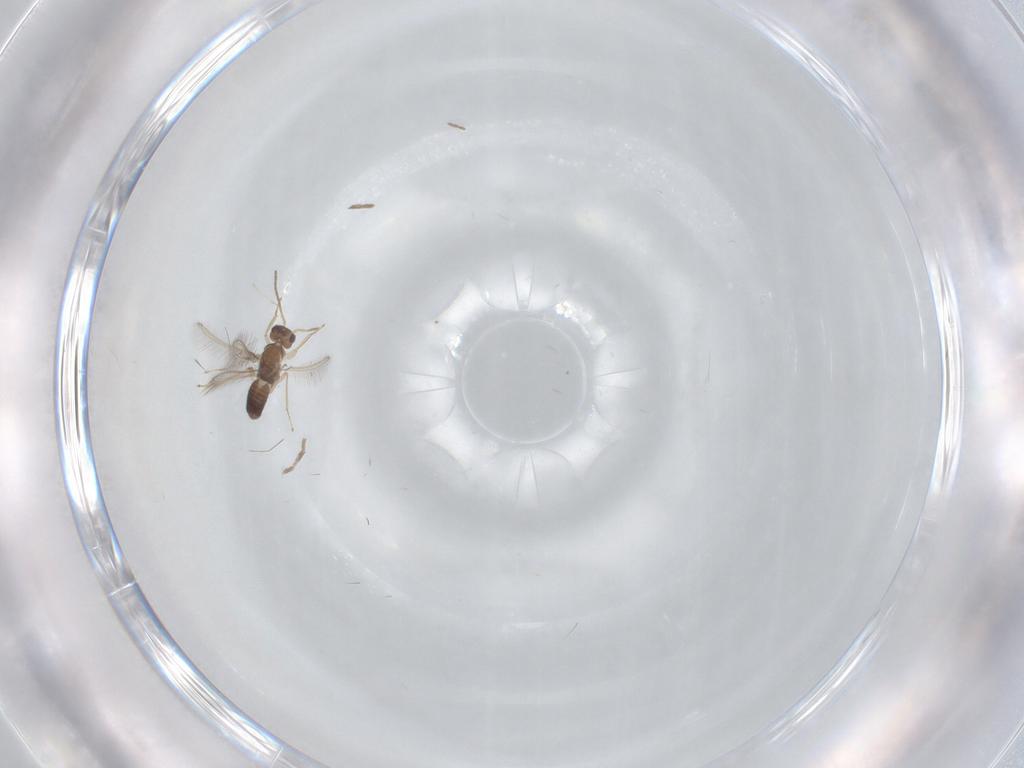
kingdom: Animalia
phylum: Arthropoda
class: Insecta
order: Hymenoptera
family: Mymaridae
